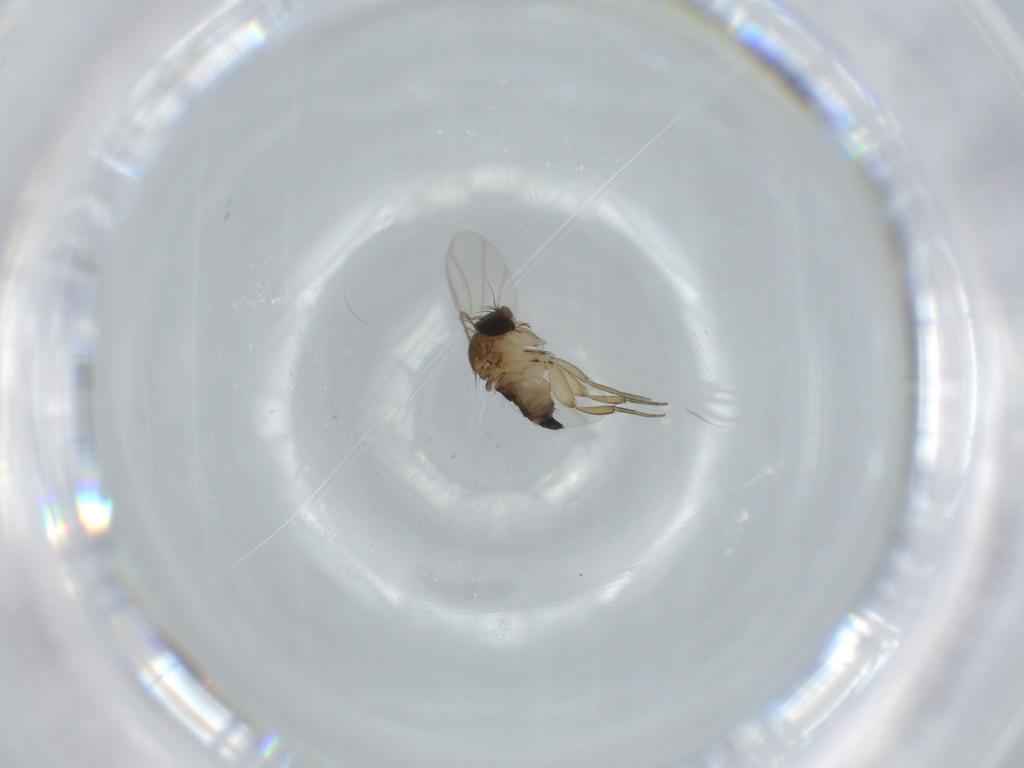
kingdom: Animalia
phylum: Arthropoda
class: Insecta
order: Diptera
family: Phoridae
